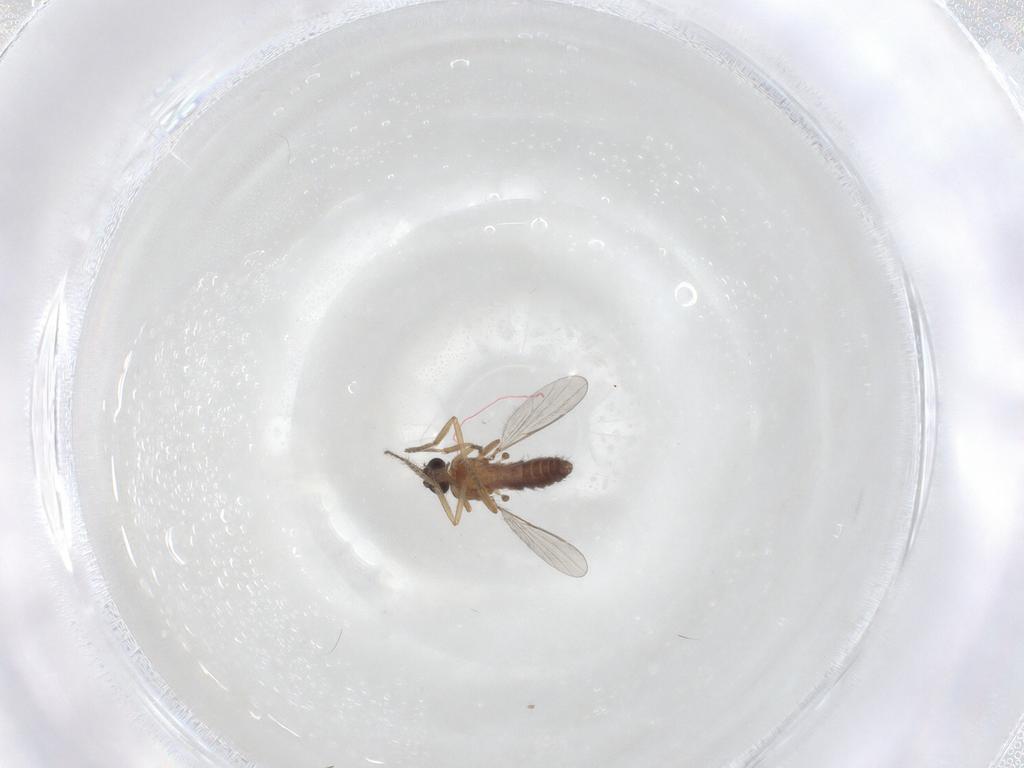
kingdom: Animalia
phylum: Arthropoda
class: Insecta
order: Diptera
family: Ceratopogonidae
